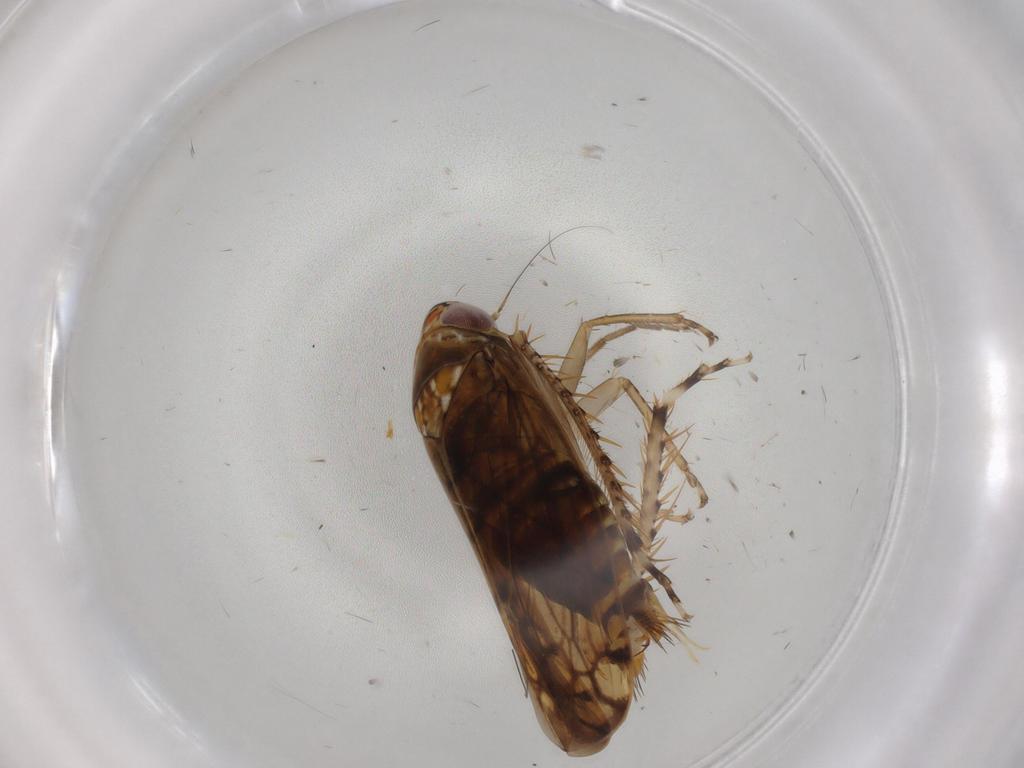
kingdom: Animalia
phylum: Arthropoda
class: Insecta
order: Hemiptera
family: Cicadellidae
